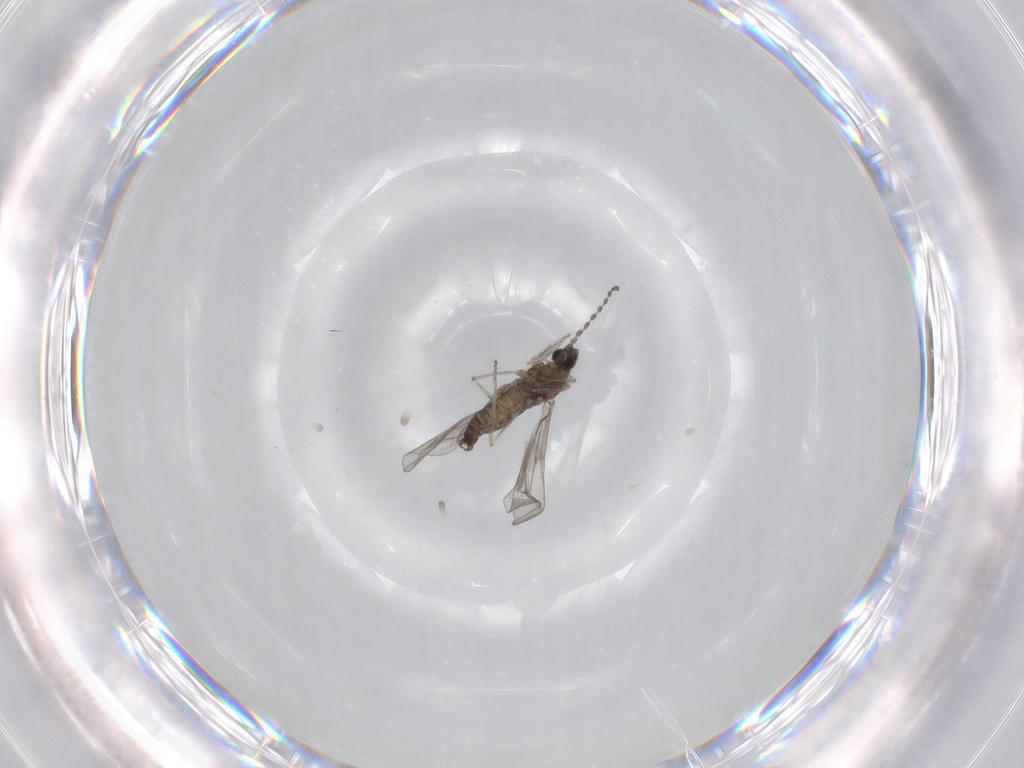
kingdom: Animalia
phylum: Arthropoda
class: Insecta
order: Diptera
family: Cecidomyiidae
